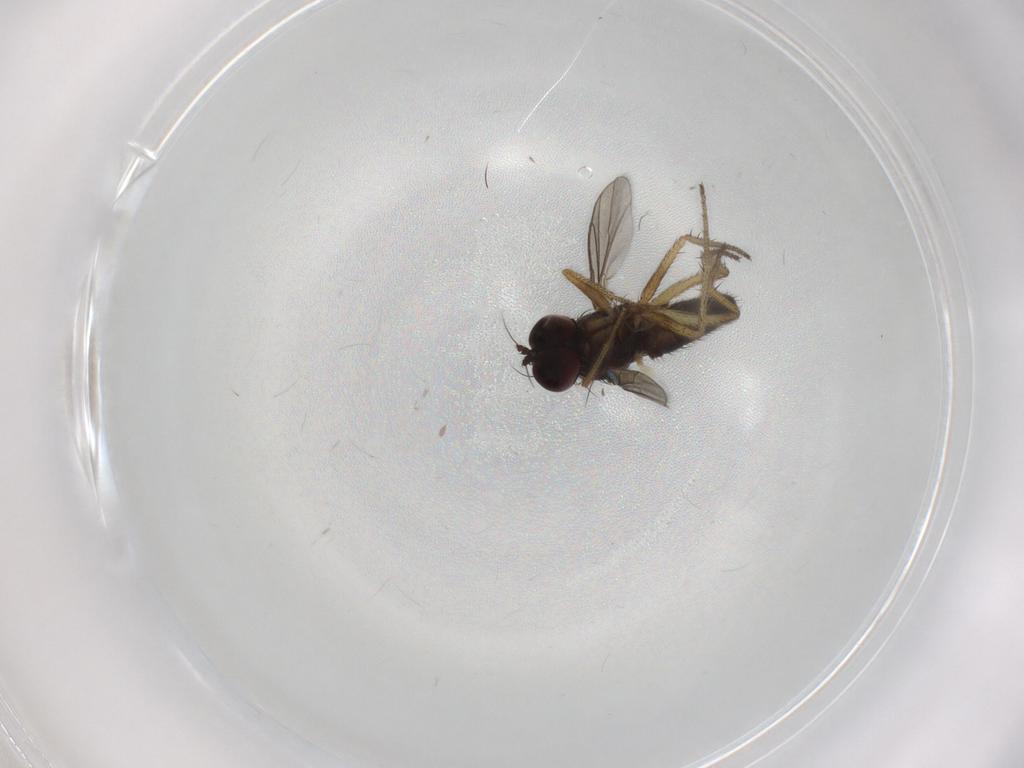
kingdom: Animalia
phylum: Arthropoda
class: Insecta
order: Diptera
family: Dolichopodidae
